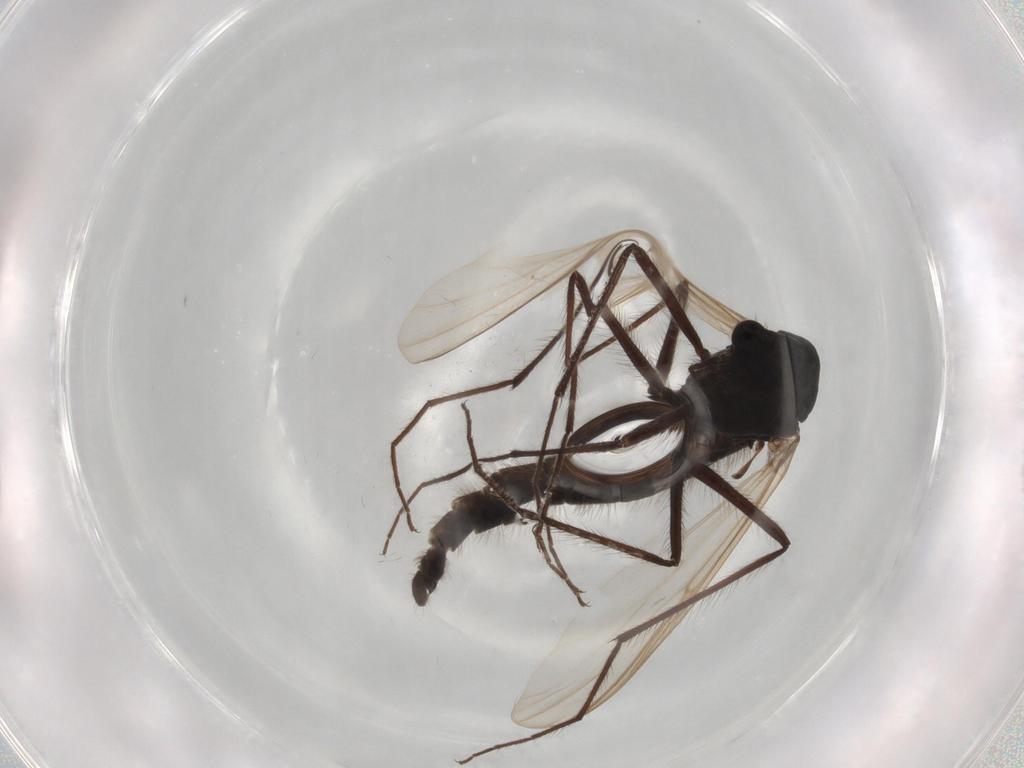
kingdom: Animalia
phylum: Arthropoda
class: Insecta
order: Diptera
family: Drosophilidae
